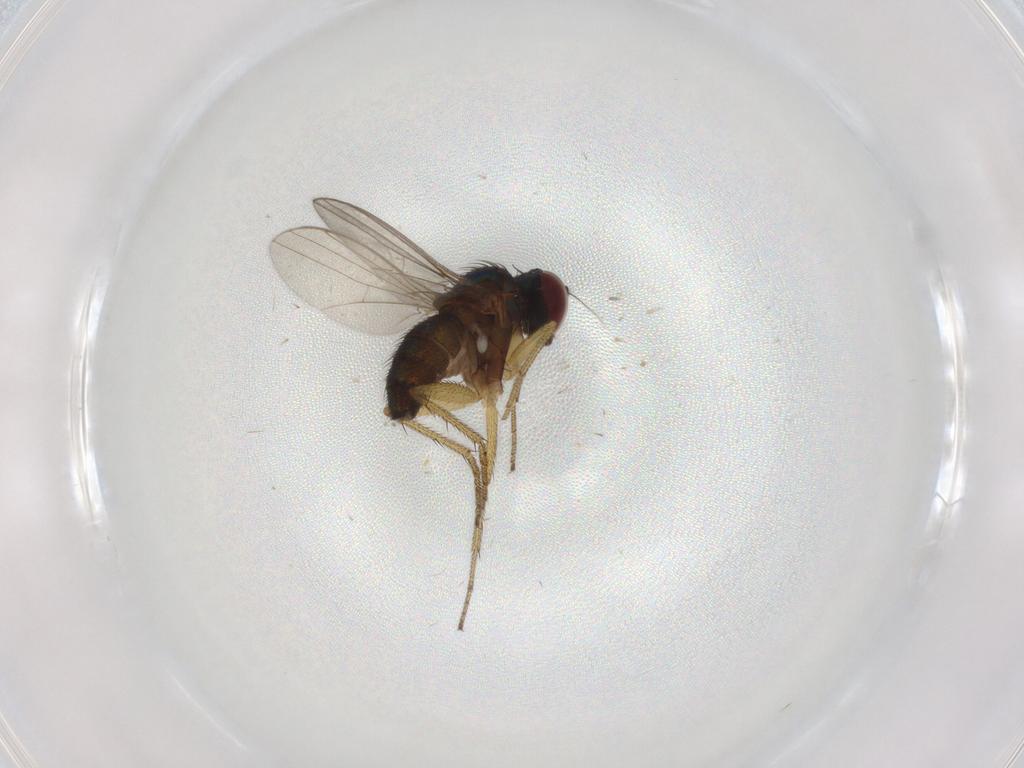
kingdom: Animalia
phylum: Arthropoda
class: Insecta
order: Diptera
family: Dolichopodidae
